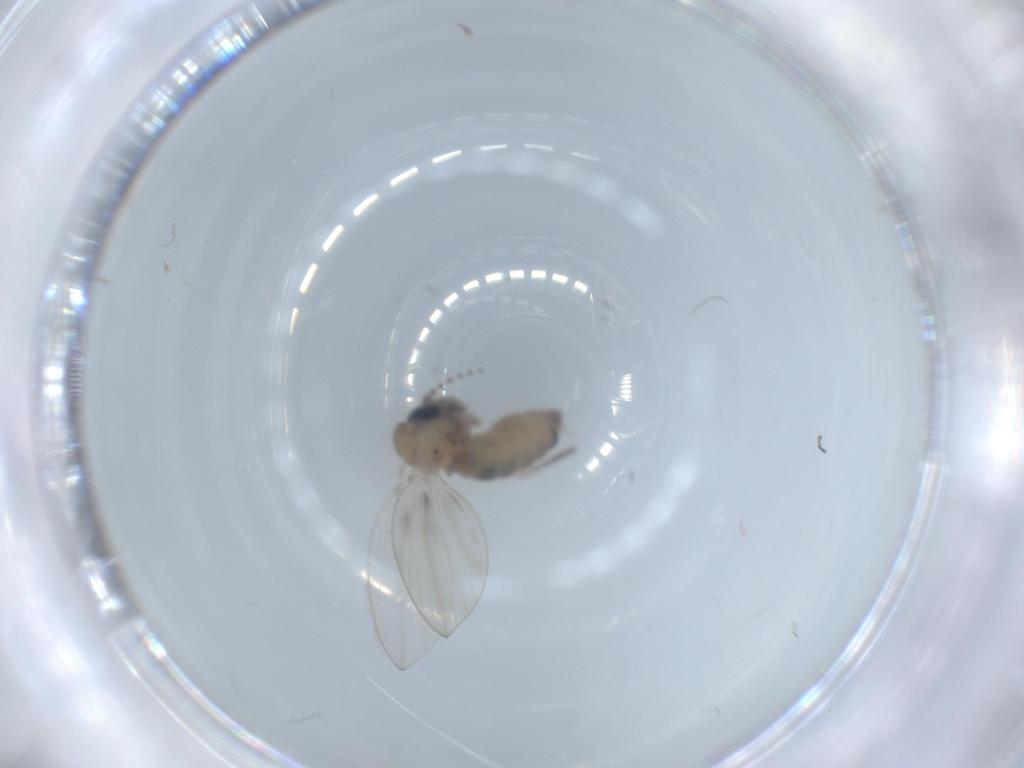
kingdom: Animalia
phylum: Arthropoda
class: Insecta
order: Diptera
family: Psychodidae
